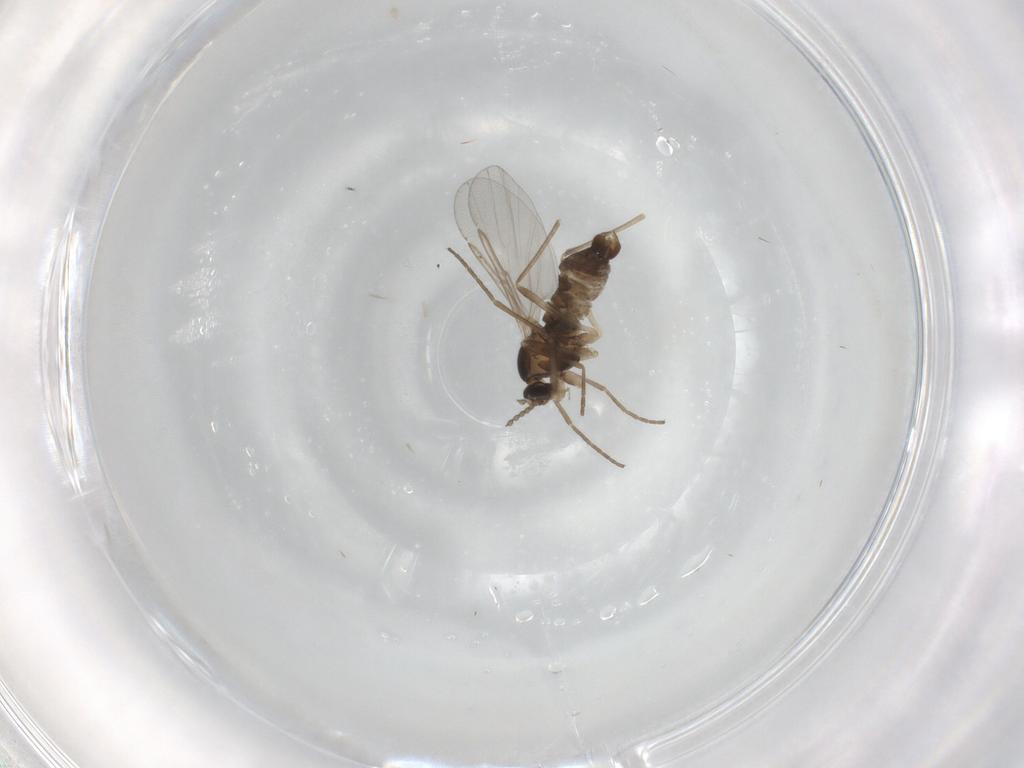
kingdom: Animalia
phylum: Arthropoda
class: Insecta
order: Diptera
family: Cecidomyiidae
